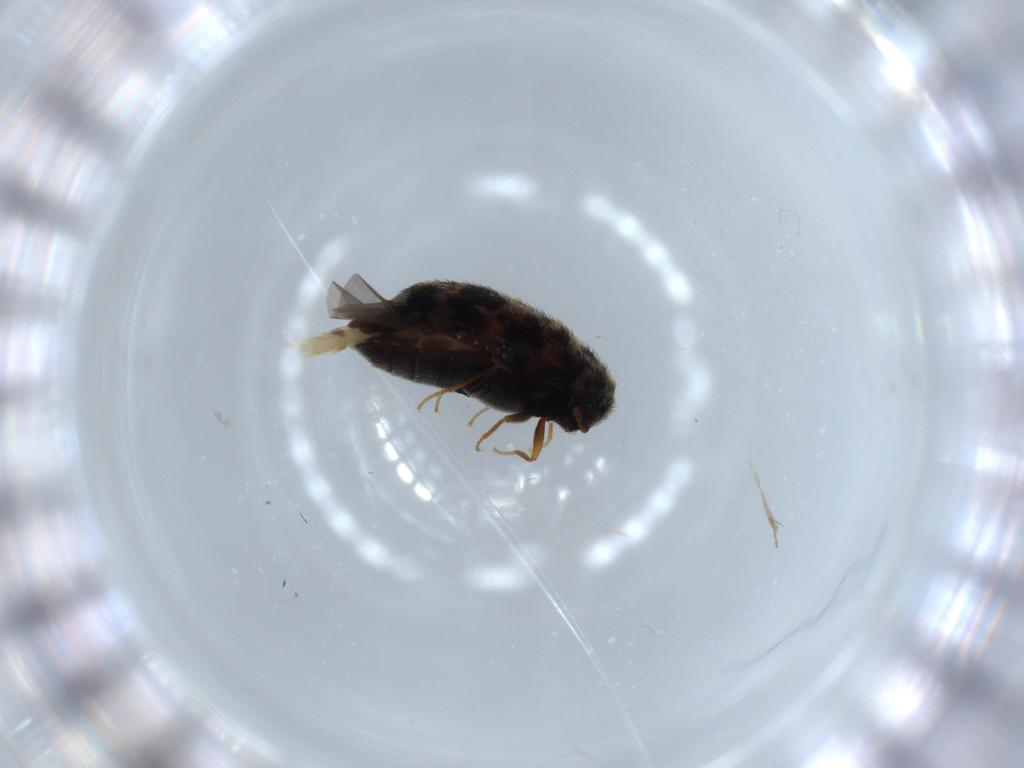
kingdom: Animalia
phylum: Arthropoda
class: Insecta
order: Coleoptera
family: Dermestidae
